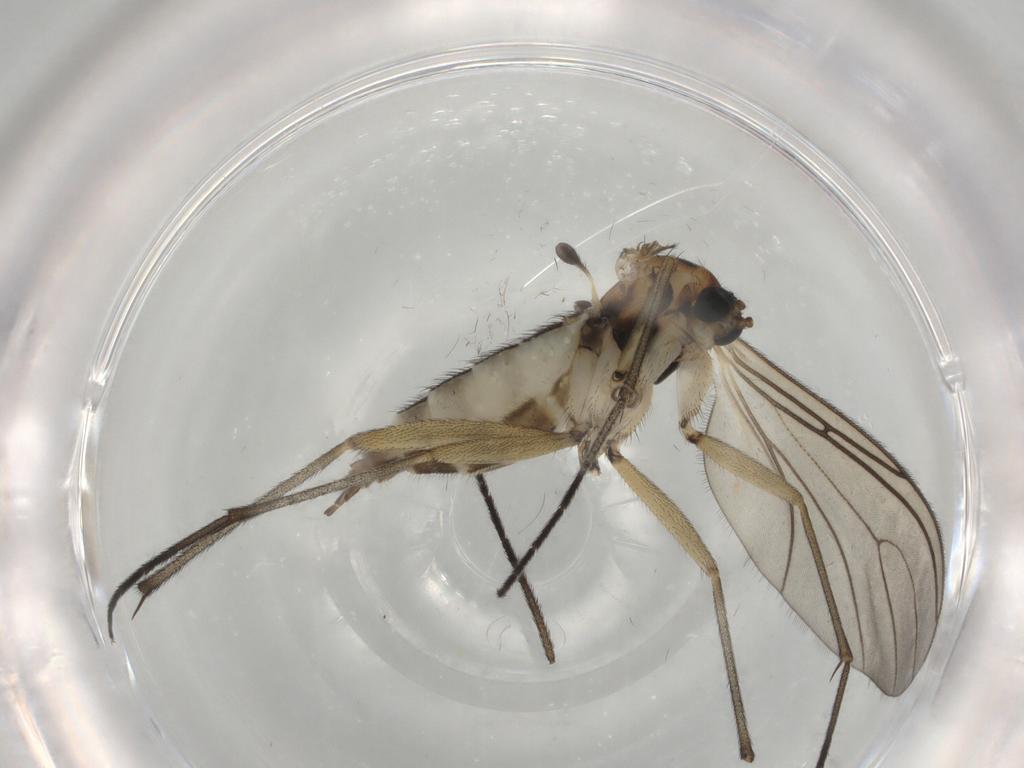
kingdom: Animalia
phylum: Arthropoda
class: Insecta
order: Diptera
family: Phoridae
